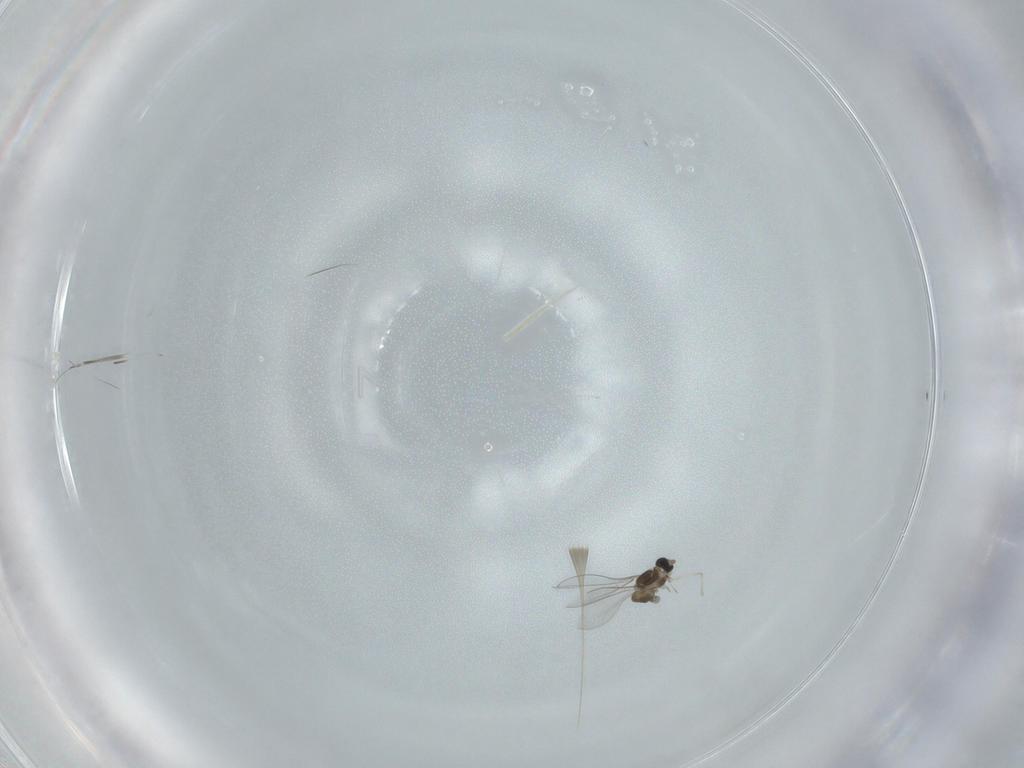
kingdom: Animalia
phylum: Arthropoda
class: Insecta
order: Diptera
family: Cecidomyiidae
